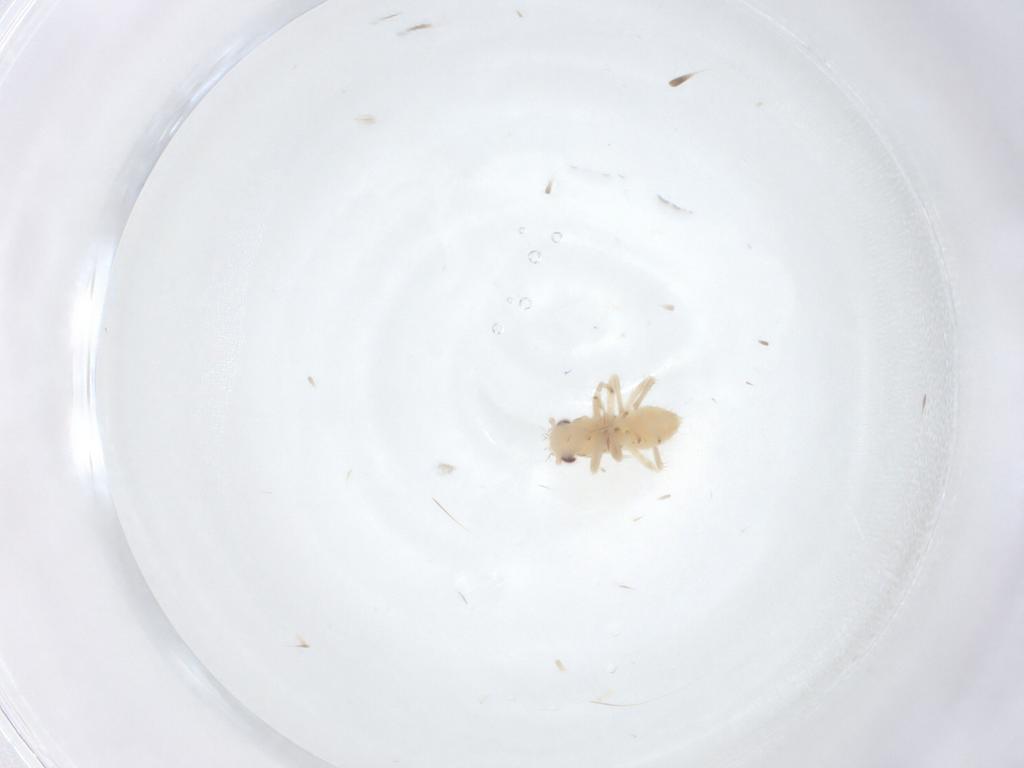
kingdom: Animalia
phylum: Arthropoda
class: Insecta
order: Hemiptera
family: Cicadellidae
